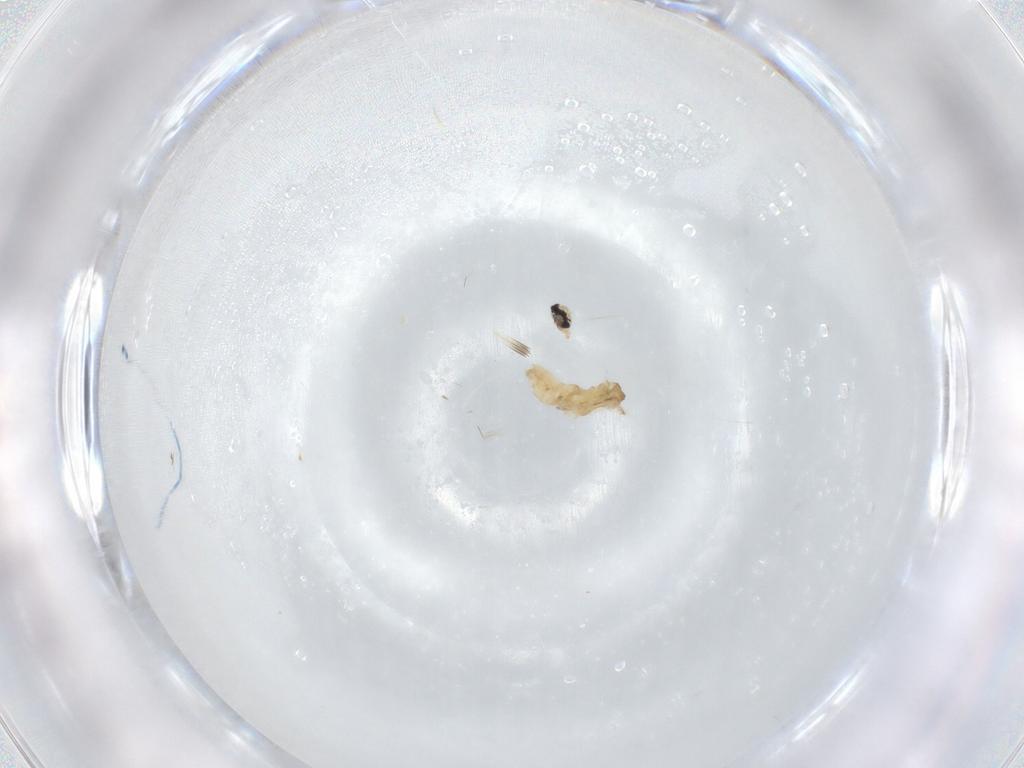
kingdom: Animalia
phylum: Arthropoda
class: Insecta
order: Diptera
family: Cecidomyiidae
